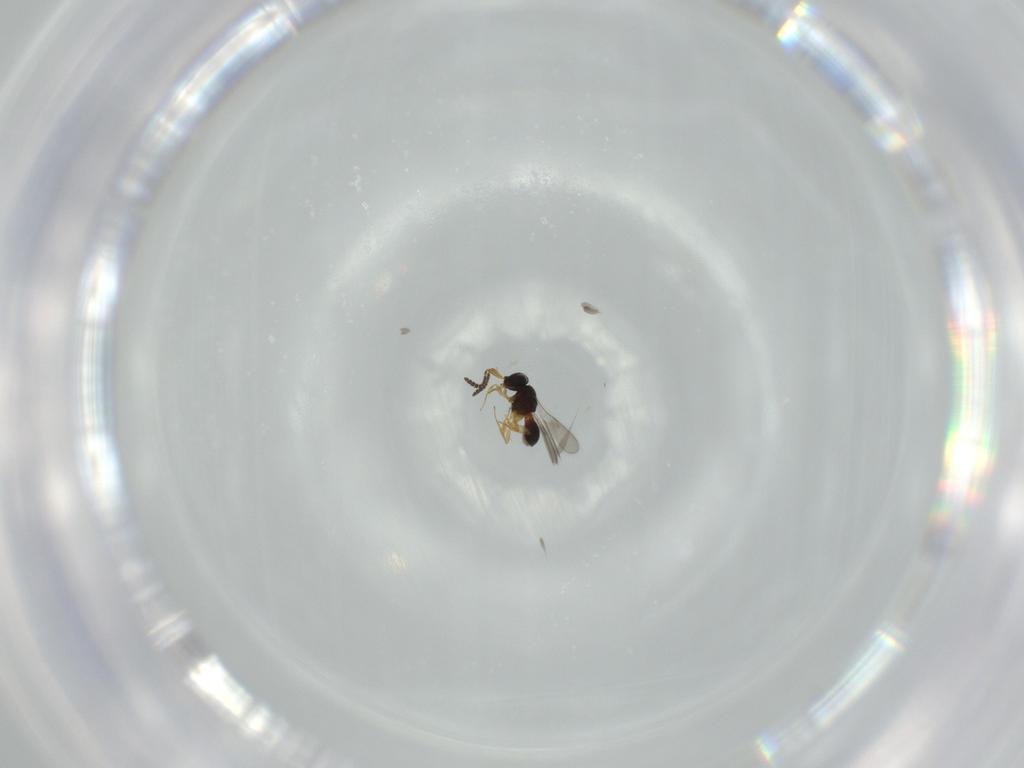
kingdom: Animalia
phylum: Arthropoda
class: Insecta
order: Hymenoptera
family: Scelionidae
